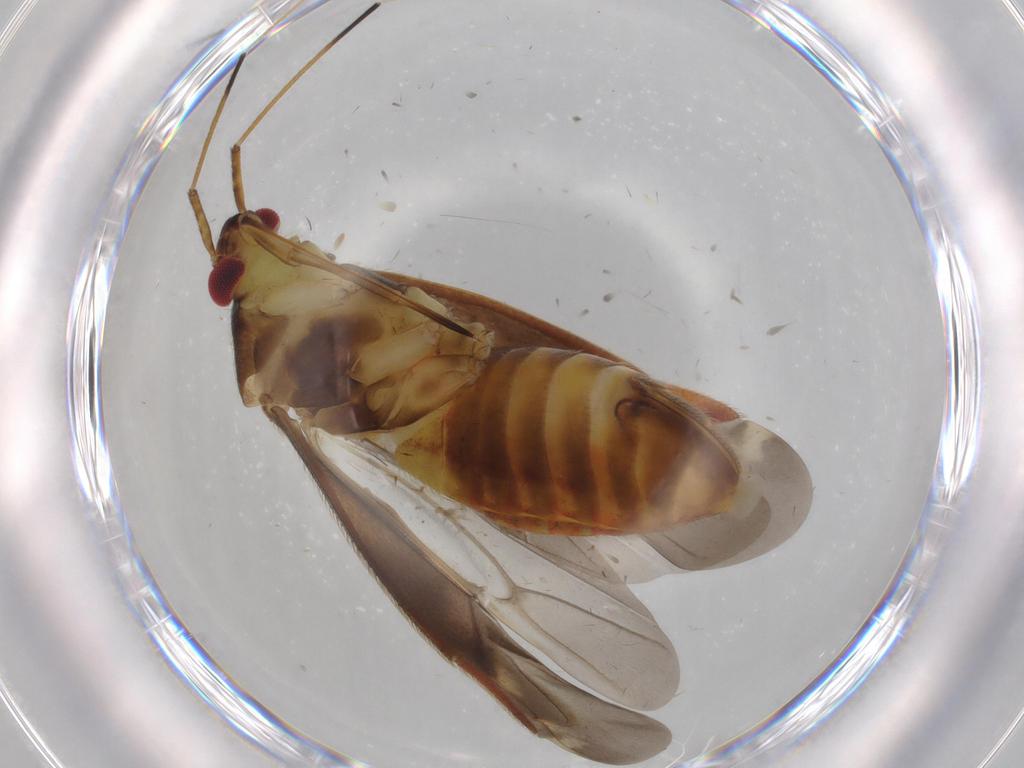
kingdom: Animalia
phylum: Arthropoda
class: Insecta
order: Hemiptera
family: Miridae
